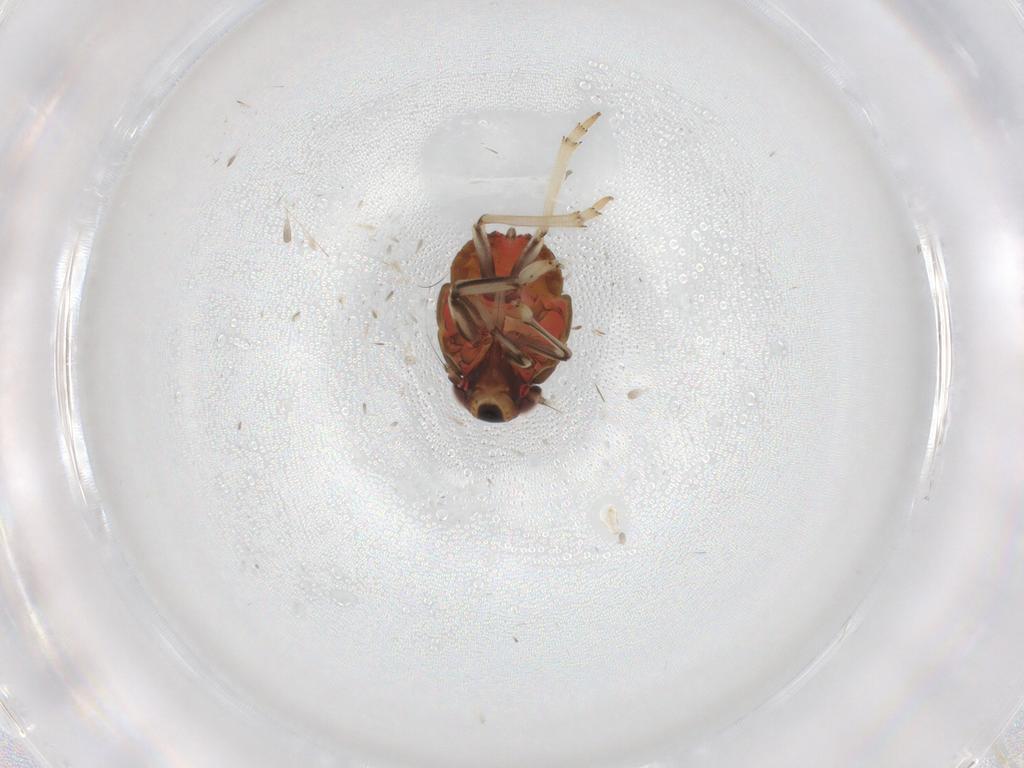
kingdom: Animalia
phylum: Arthropoda
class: Insecta
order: Hemiptera
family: Issidae
